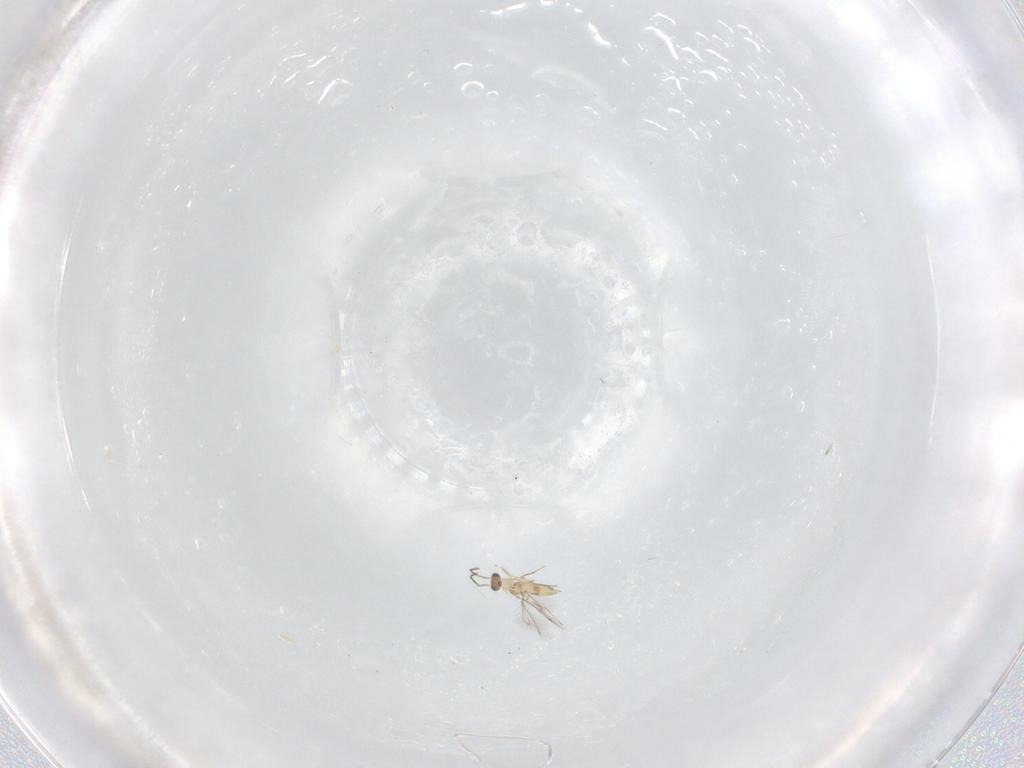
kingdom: Animalia
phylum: Arthropoda
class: Insecta
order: Hymenoptera
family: Mymaridae
